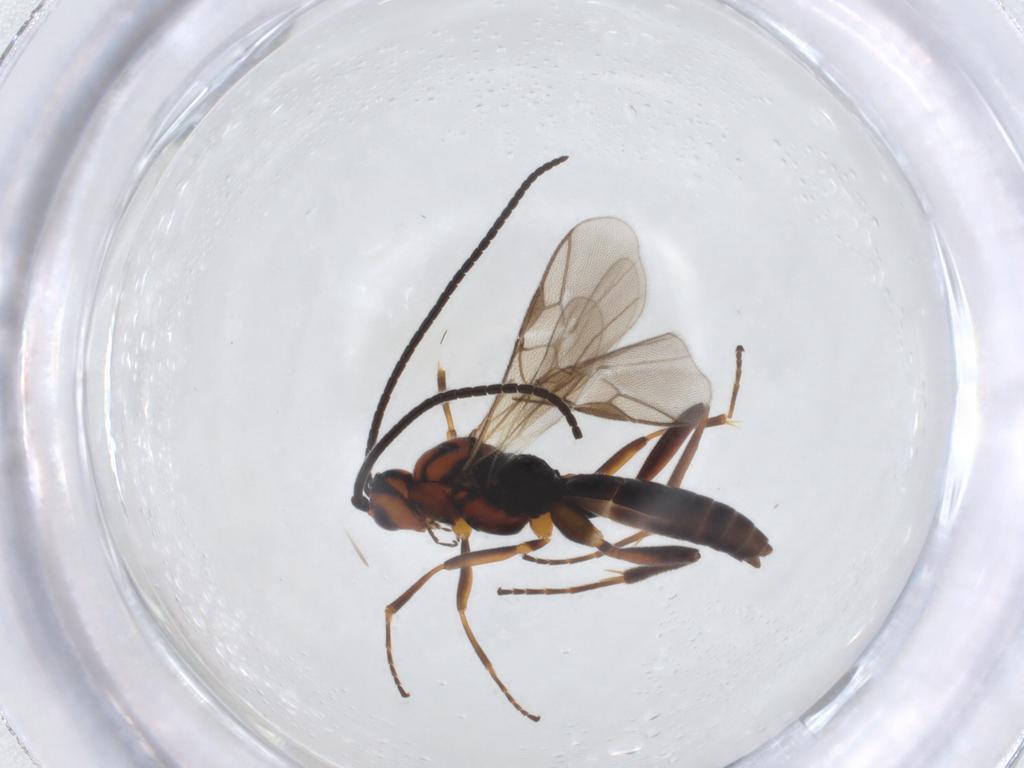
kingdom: Animalia
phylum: Arthropoda
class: Insecta
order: Hymenoptera
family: Braconidae
